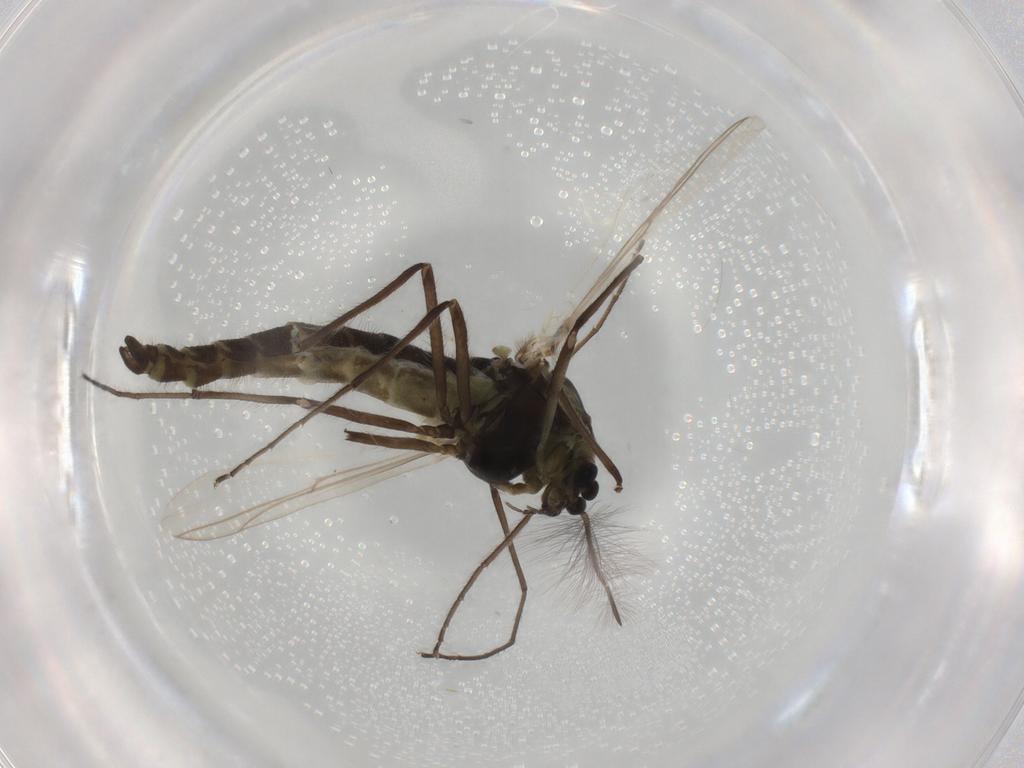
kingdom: Animalia
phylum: Arthropoda
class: Insecta
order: Diptera
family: Ceratopogonidae
